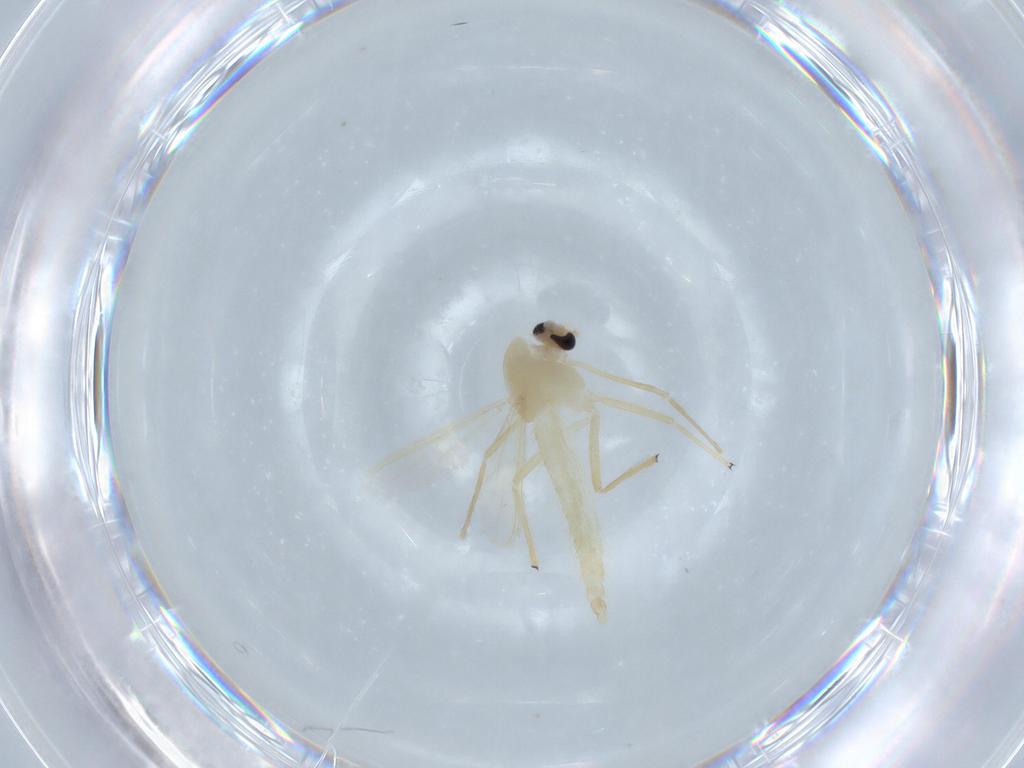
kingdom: Animalia
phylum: Arthropoda
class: Insecta
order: Diptera
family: Chironomidae
